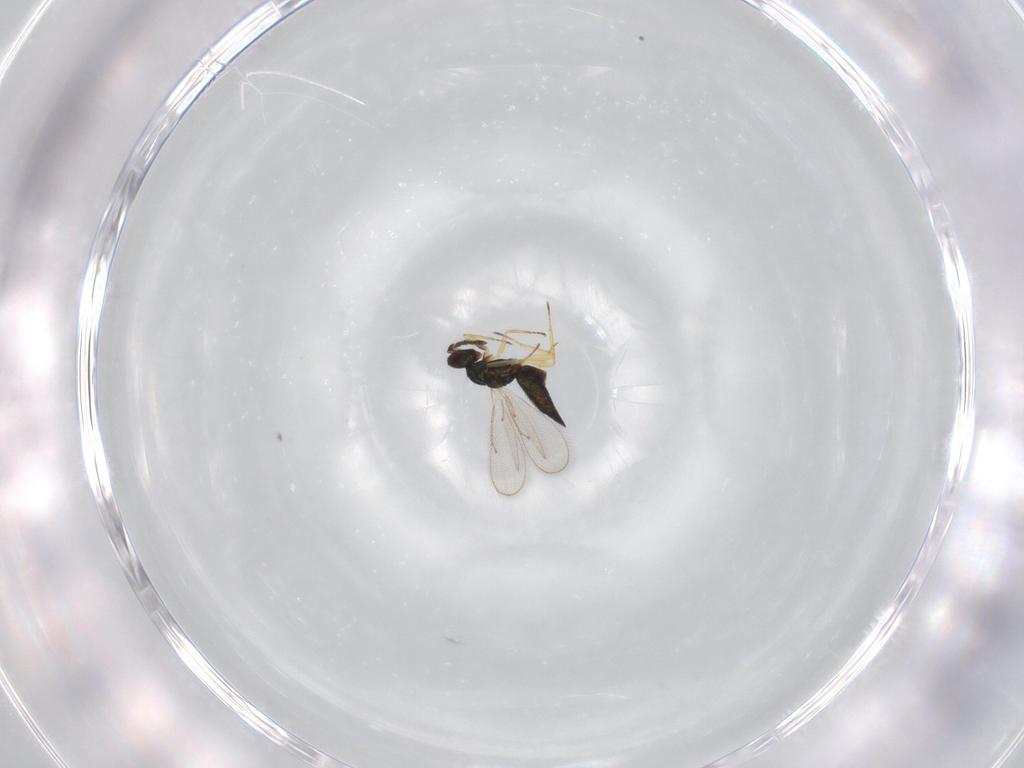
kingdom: Animalia
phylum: Arthropoda
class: Insecta
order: Hymenoptera
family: Eulophidae
